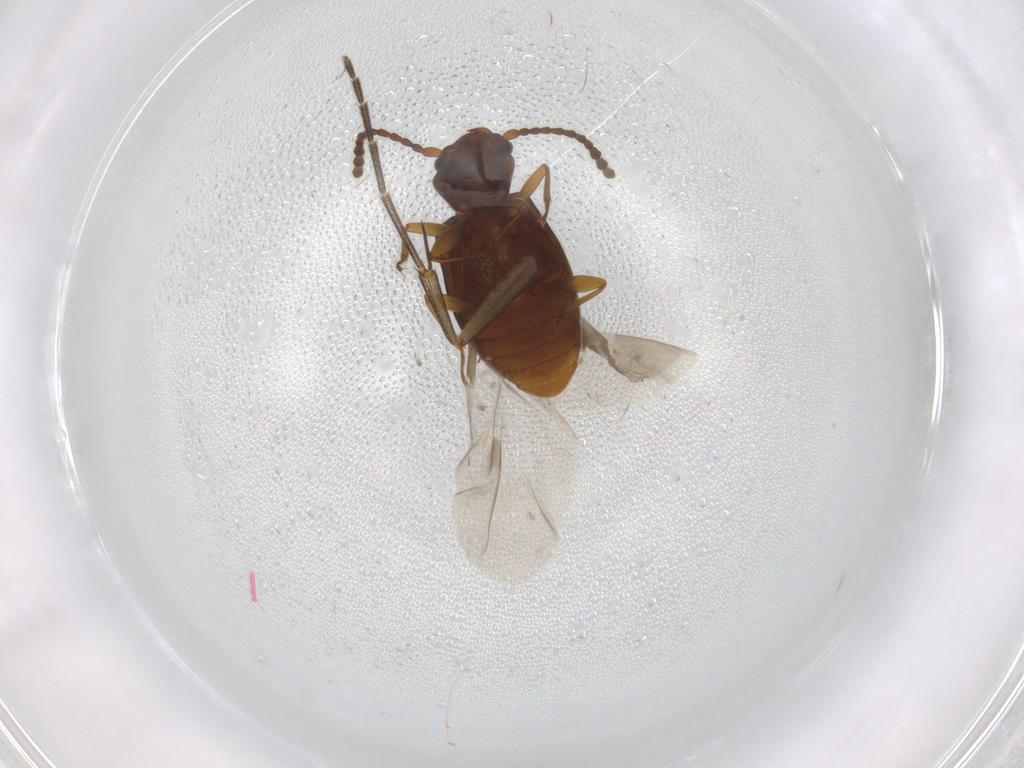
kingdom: Animalia
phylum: Arthropoda
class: Insecta
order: Coleoptera
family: Laemophloeidae
